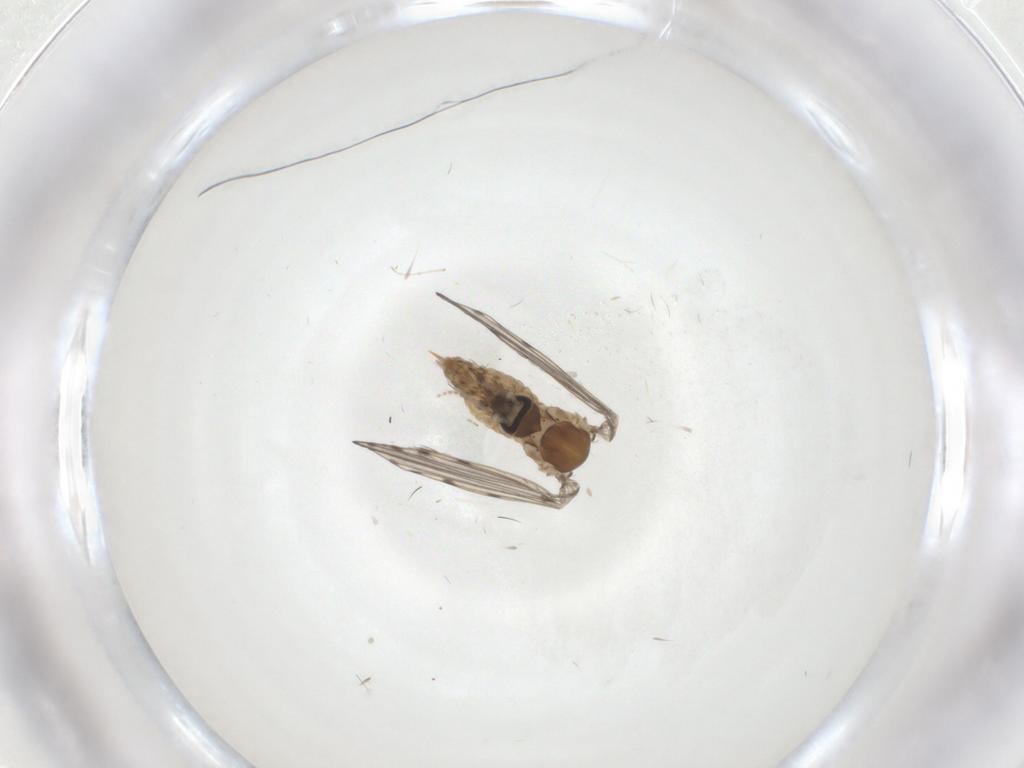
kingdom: Animalia
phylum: Arthropoda
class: Insecta
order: Diptera
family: Psychodidae
